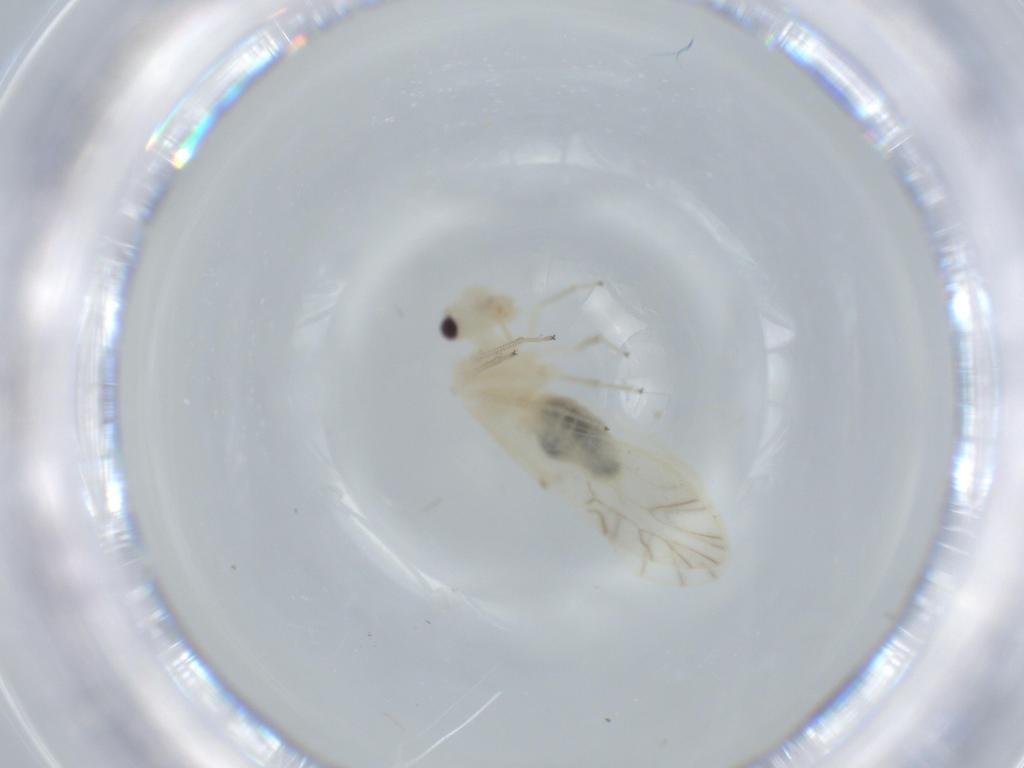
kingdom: Animalia
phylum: Arthropoda
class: Insecta
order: Psocodea
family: Caeciliusidae
